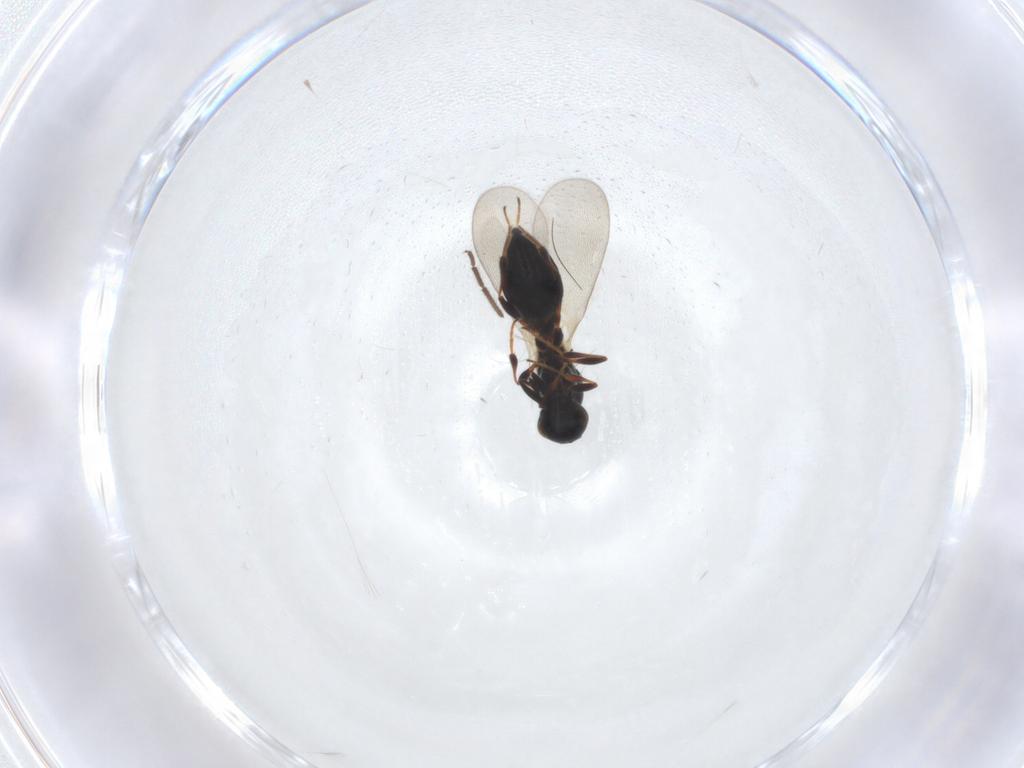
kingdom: Animalia
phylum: Arthropoda
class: Insecta
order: Hymenoptera
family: Platygastridae
